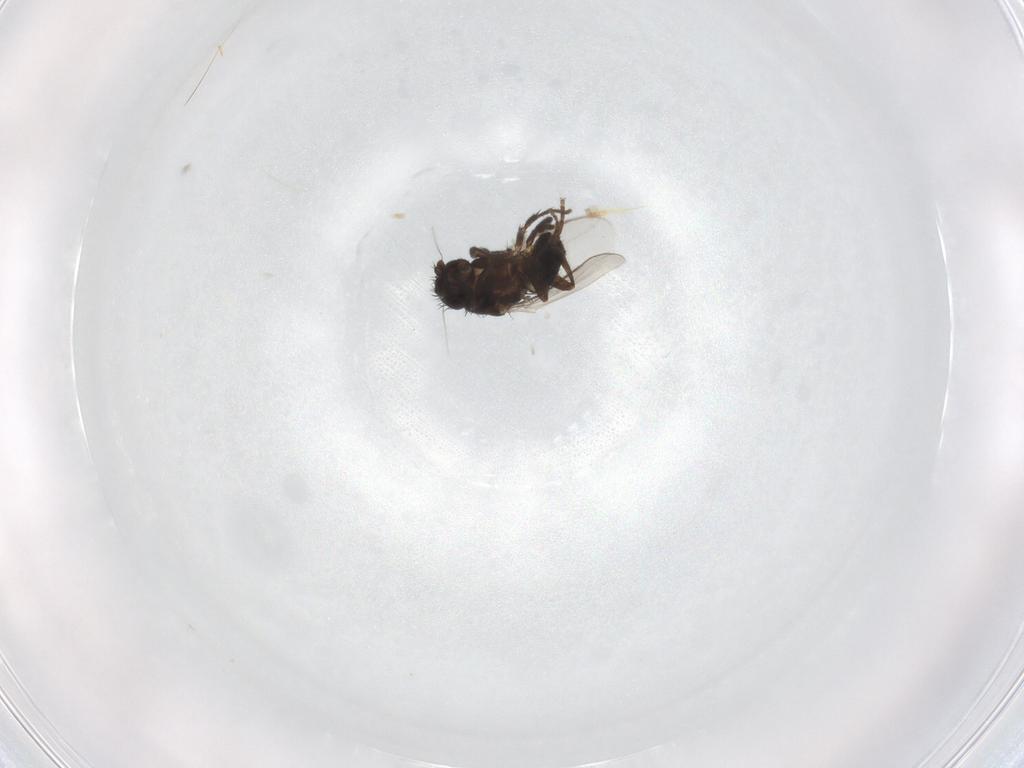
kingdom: Animalia
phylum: Arthropoda
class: Insecta
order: Diptera
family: Sphaeroceridae
